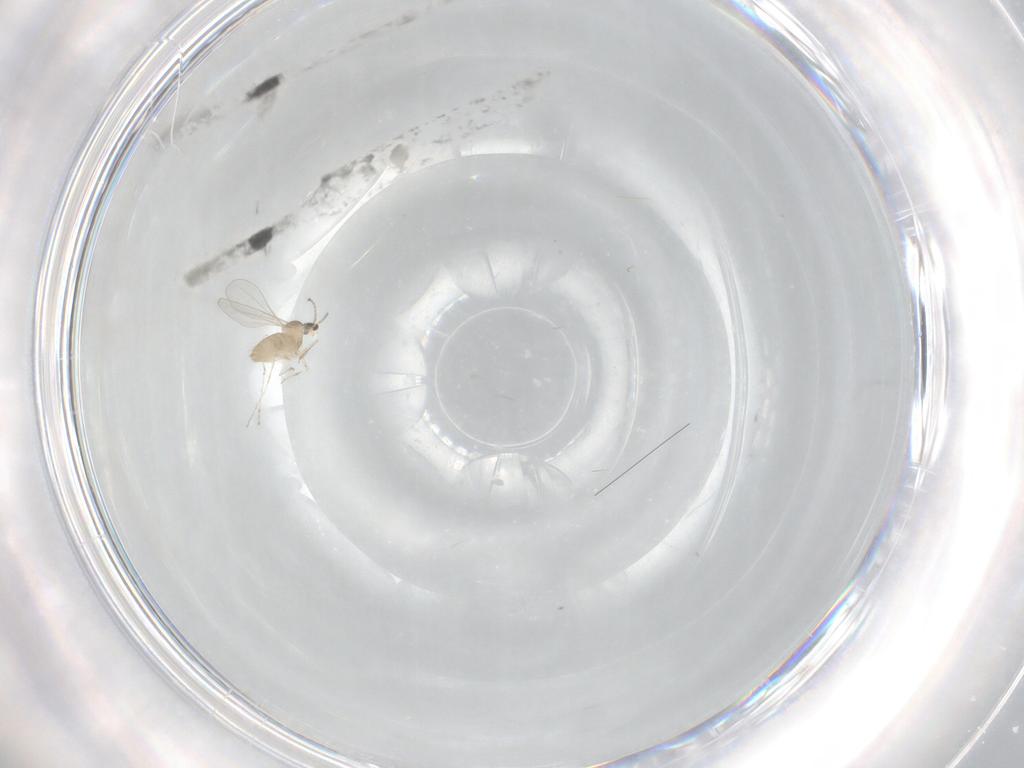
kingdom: Animalia
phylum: Arthropoda
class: Insecta
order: Diptera
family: Cecidomyiidae
